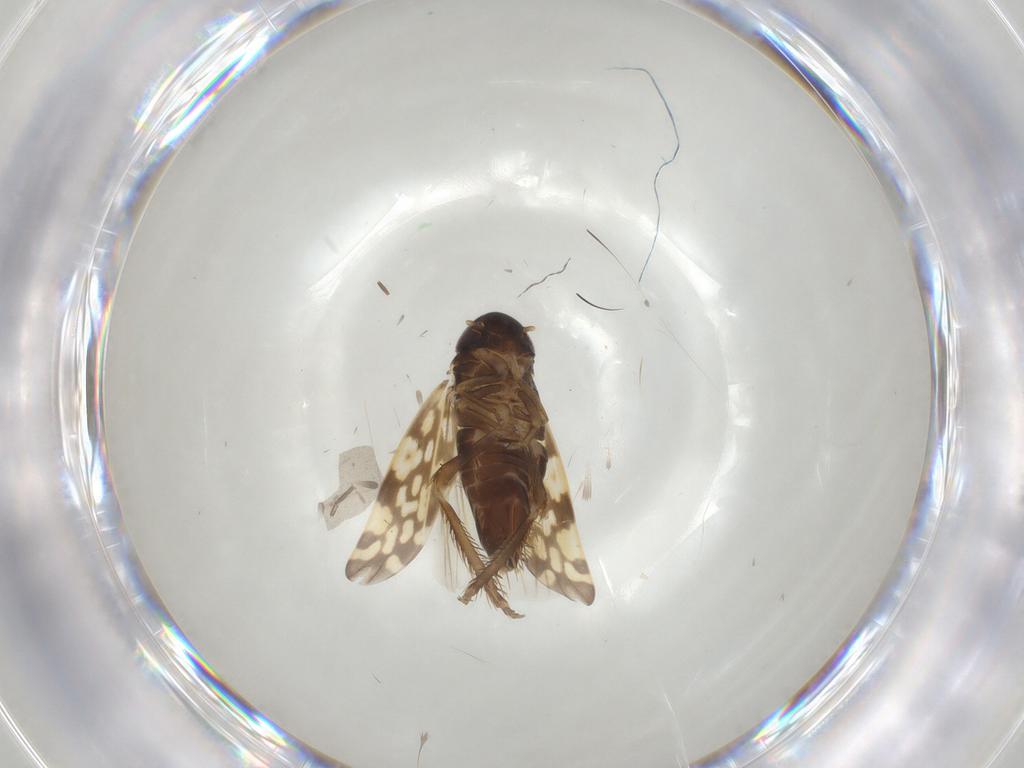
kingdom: Animalia
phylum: Arthropoda
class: Insecta
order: Hemiptera
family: Cicadellidae
